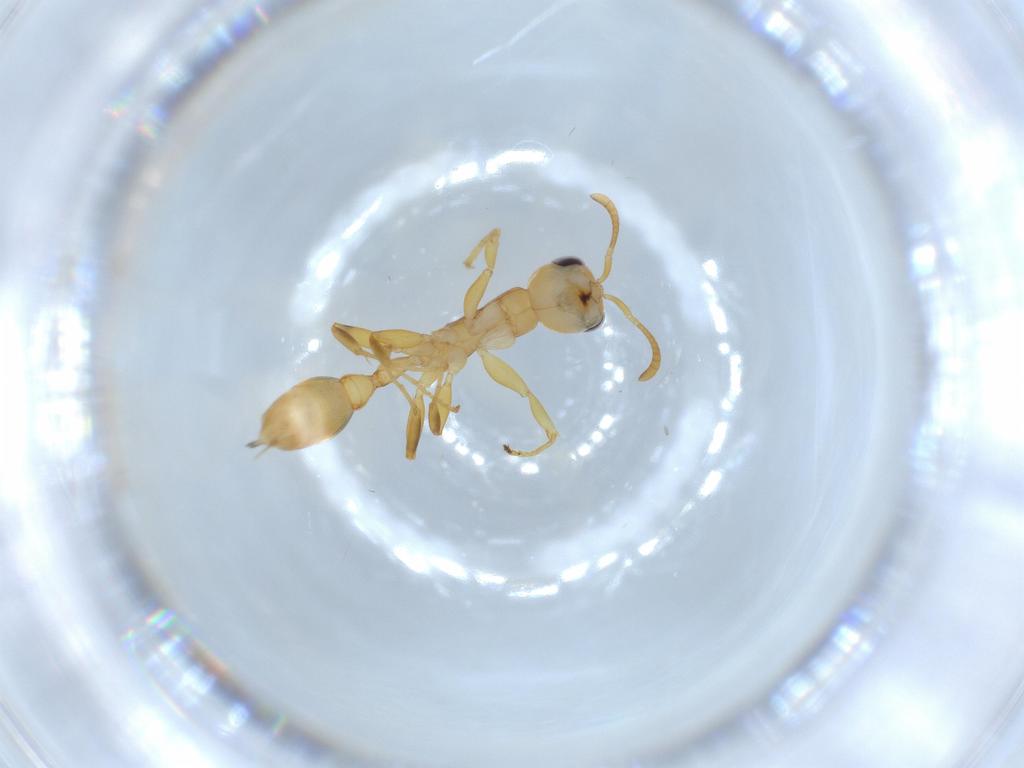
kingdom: Animalia
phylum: Arthropoda
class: Insecta
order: Hymenoptera
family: Formicidae
